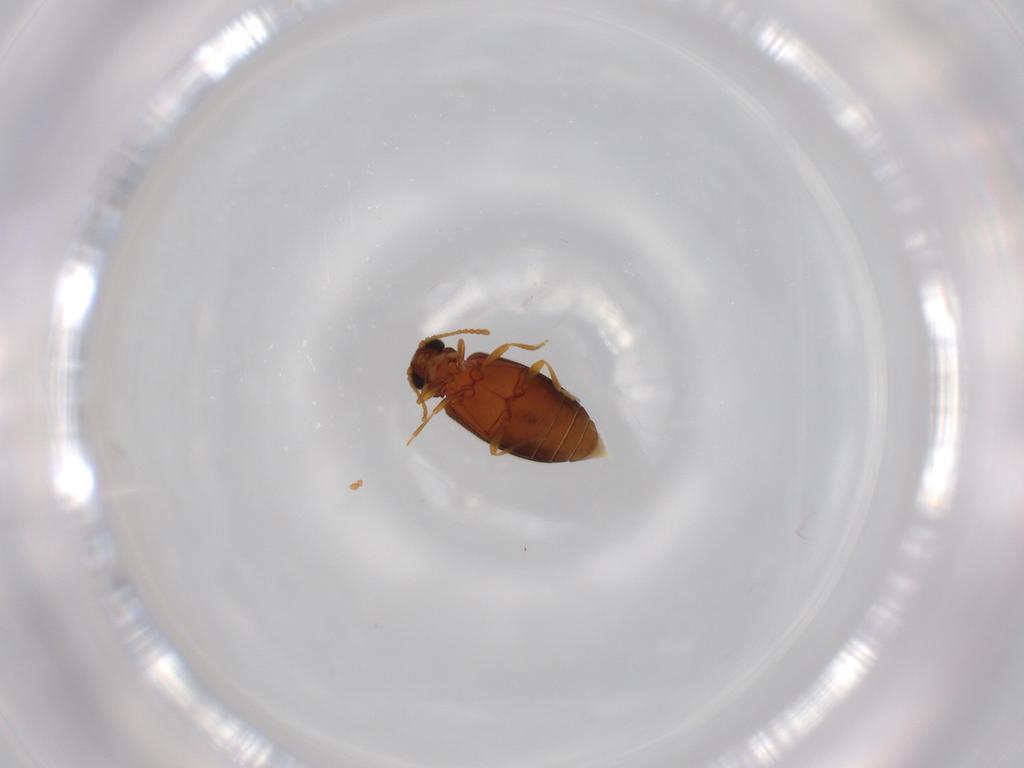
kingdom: Animalia
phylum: Arthropoda
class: Insecta
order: Coleoptera
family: Aderidae
